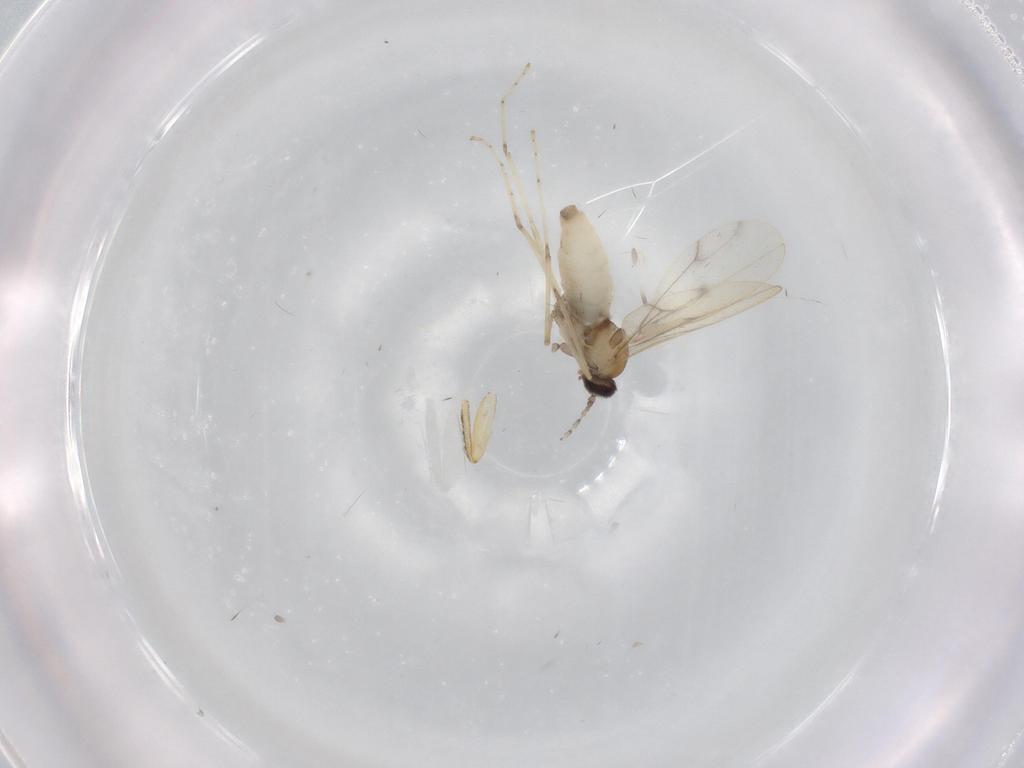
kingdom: Animalia
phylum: Arthropoda
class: Insecta
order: Diptera
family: Cecidomyiidae
